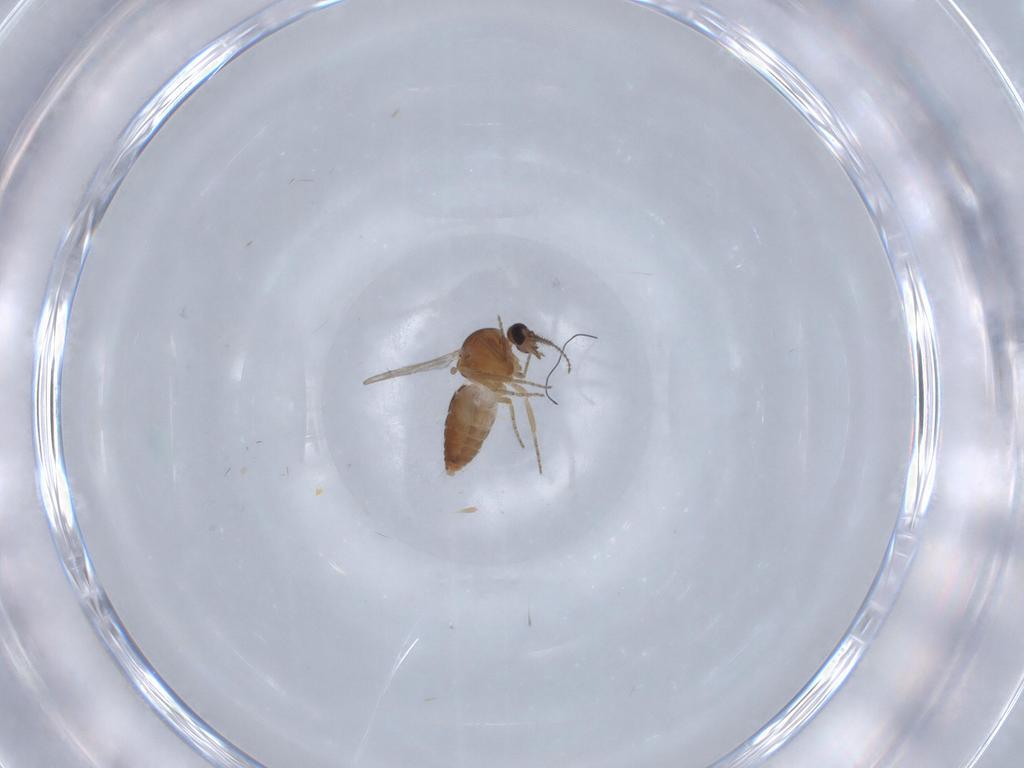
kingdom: Animalia
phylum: Arthropoda
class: Insecta
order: Diptera
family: Ceratopogonidae
